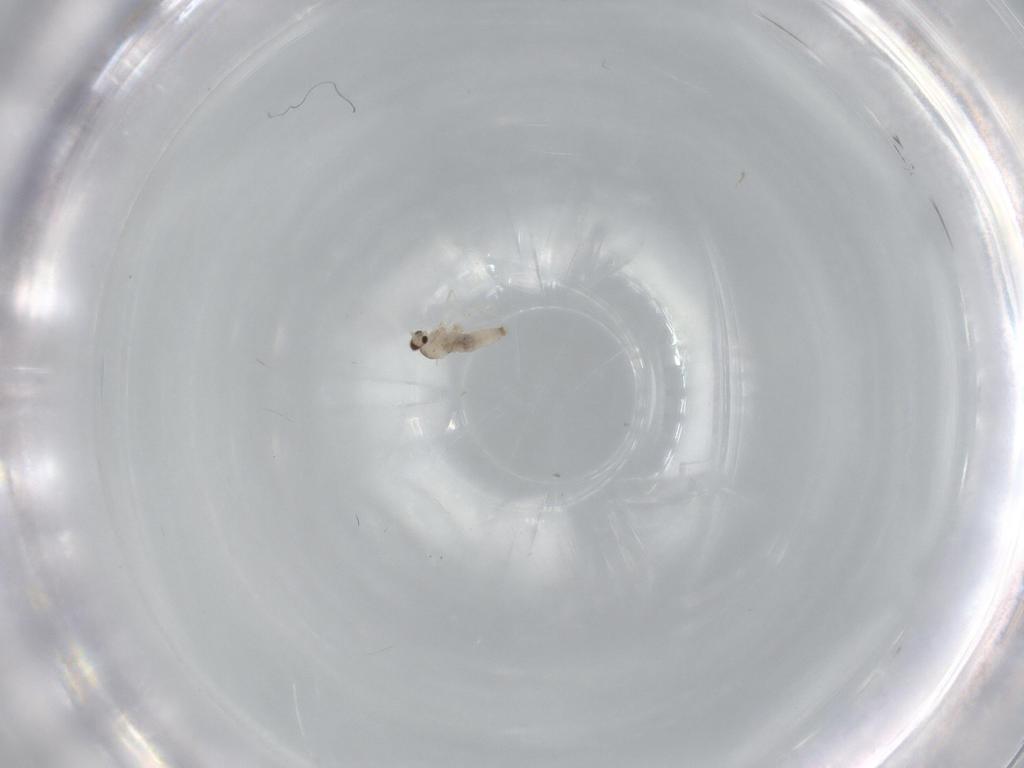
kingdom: Animalia
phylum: Arthropoda
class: Insecta
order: Diptera
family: Cecidomyiidae
